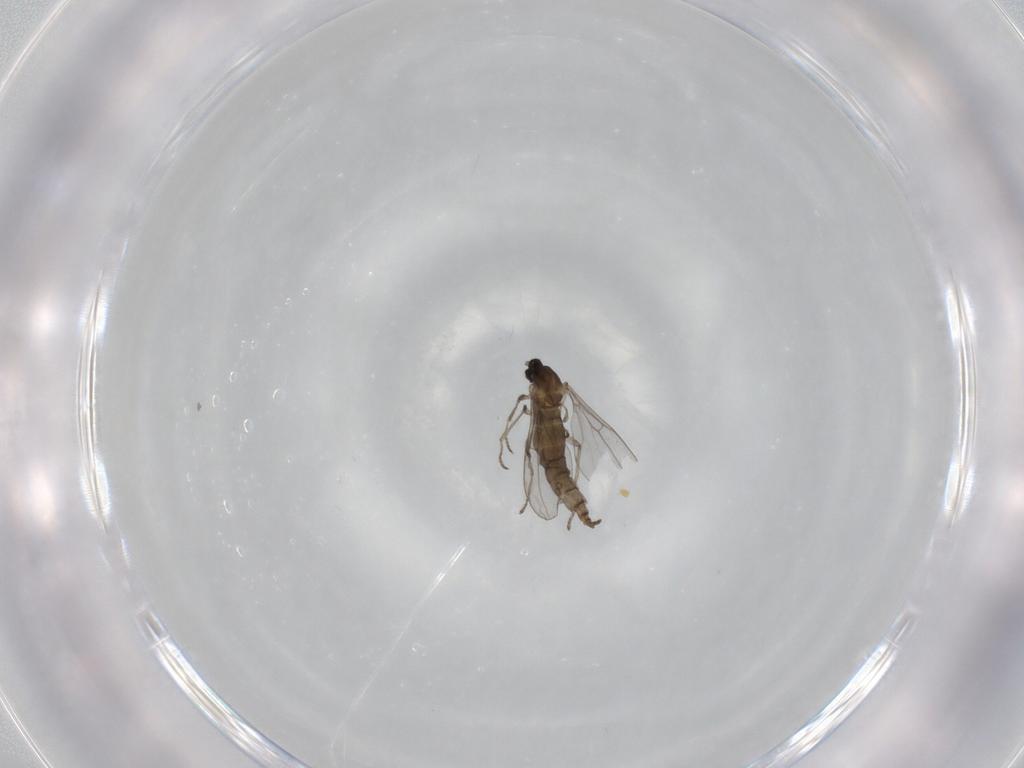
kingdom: Animalia
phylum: Arthropoda
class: Insecta
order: Diptera
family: Cecidomyiidae
